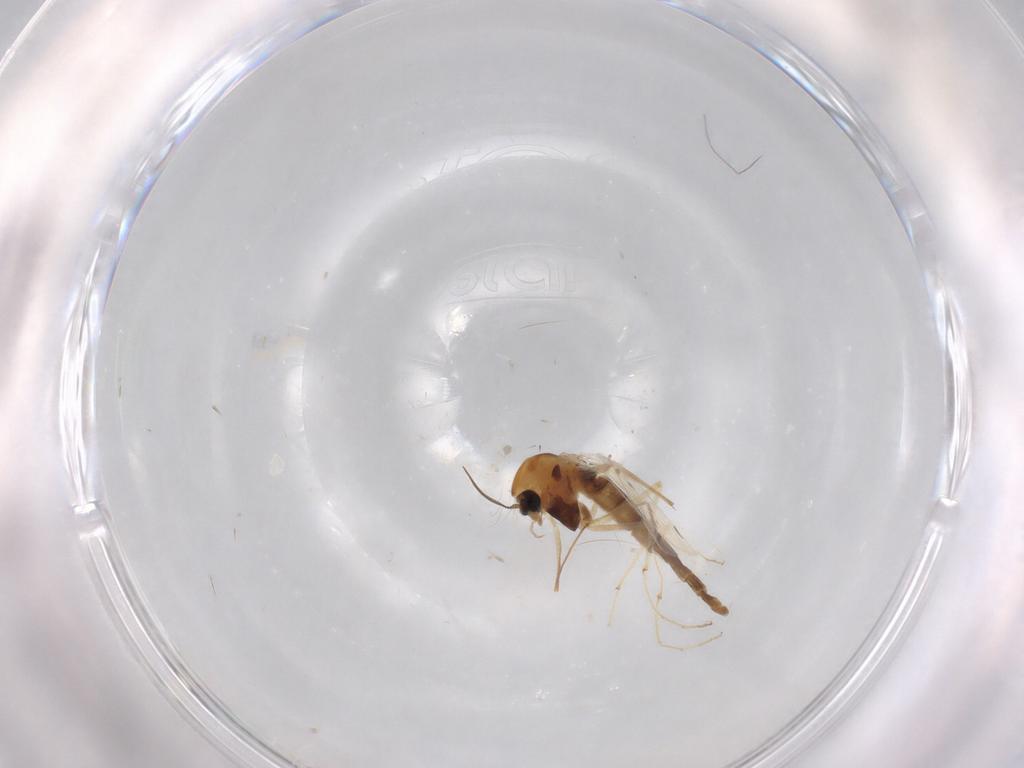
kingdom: Animalia
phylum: Arthropoda
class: Insecta
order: Diptera
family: Chironomidae
